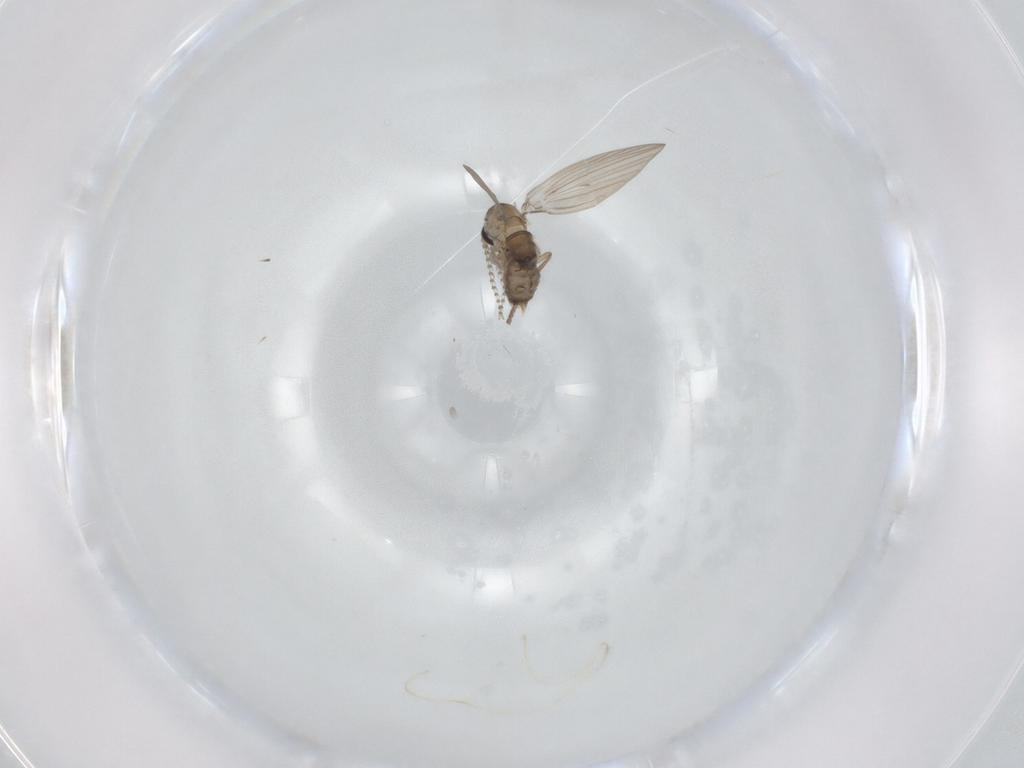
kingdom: Animalia
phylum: Arthropoda
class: Insecta
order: Diptera
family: Psychodidae
